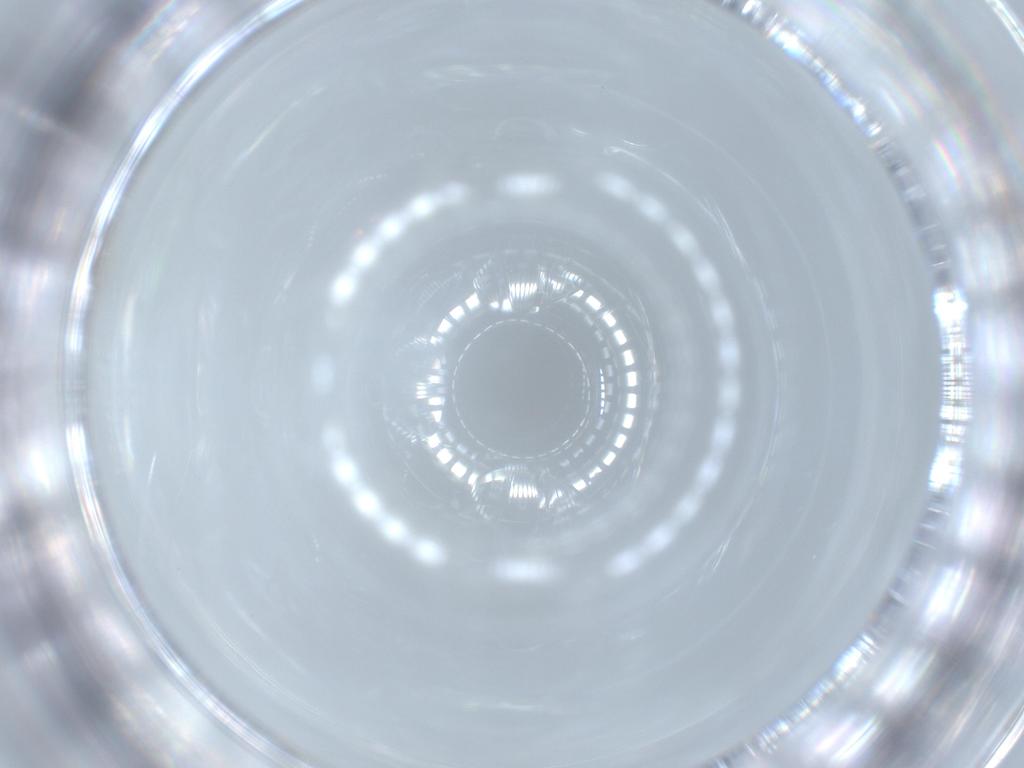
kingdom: Animalia
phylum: Arthropoda
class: Insecta
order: Diptera
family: Cecidomyiidae
